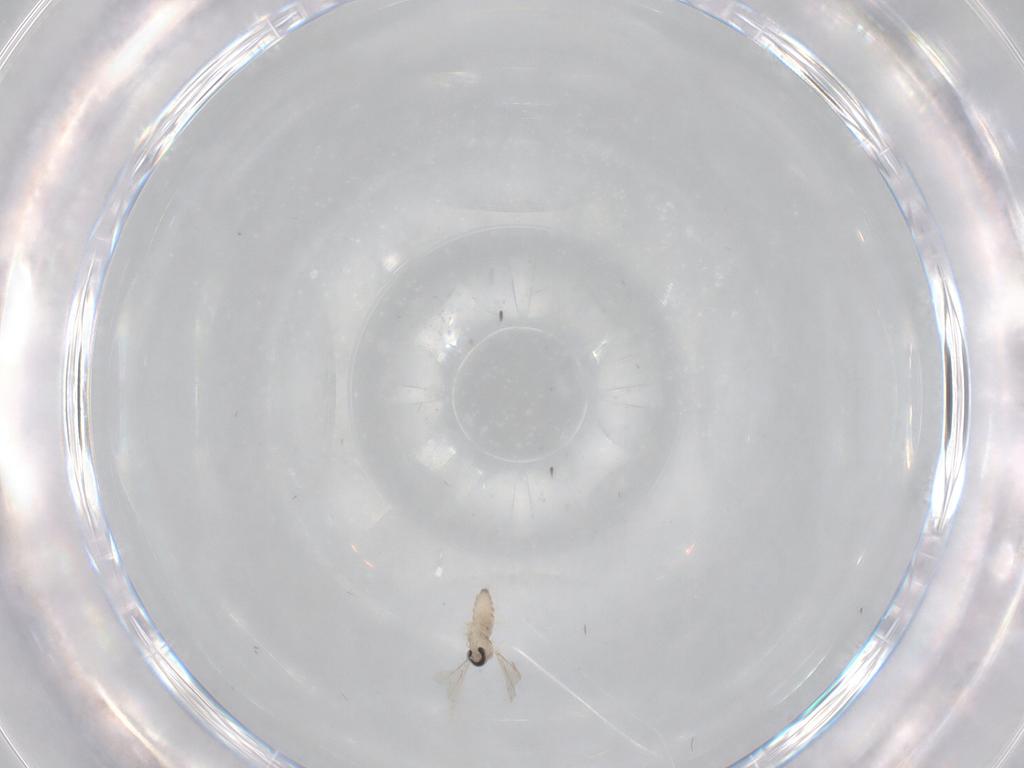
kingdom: Animalia
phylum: Arthropoda
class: Insecta
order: Diptera
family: Cecidomyiidae
